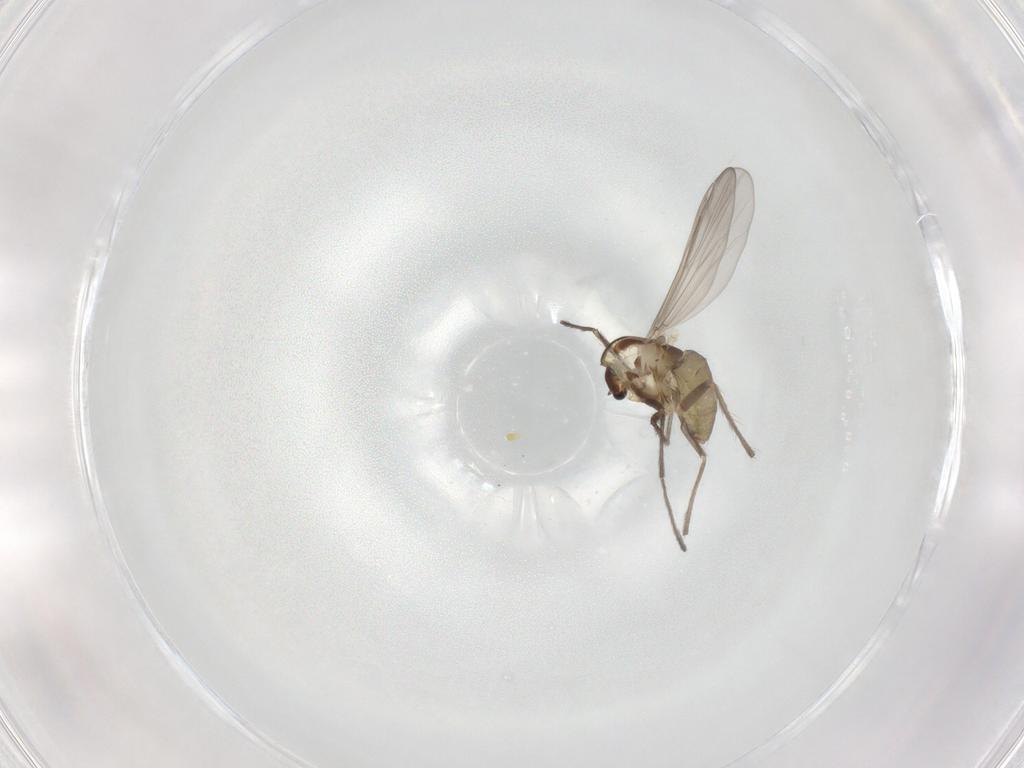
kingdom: Animalia
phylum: Arthropoda
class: Insecta
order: Diptera
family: Chironomidae
